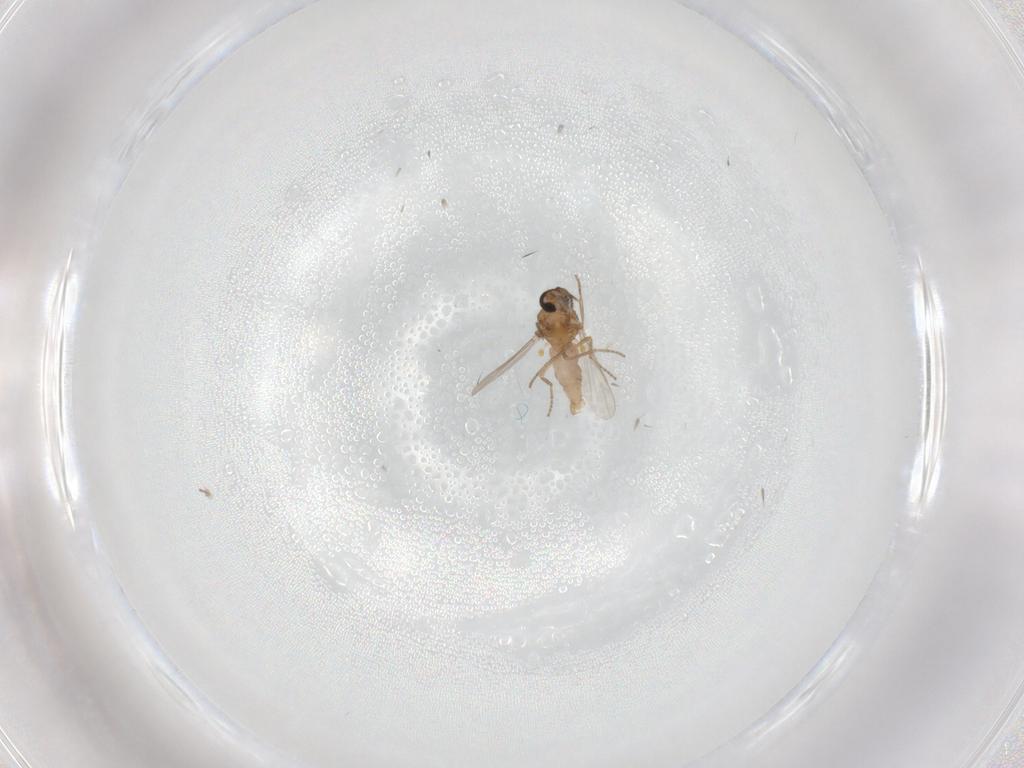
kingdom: Animalia
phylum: Arthropoda
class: Insecta
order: Diptera
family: Ceratopogonidae
